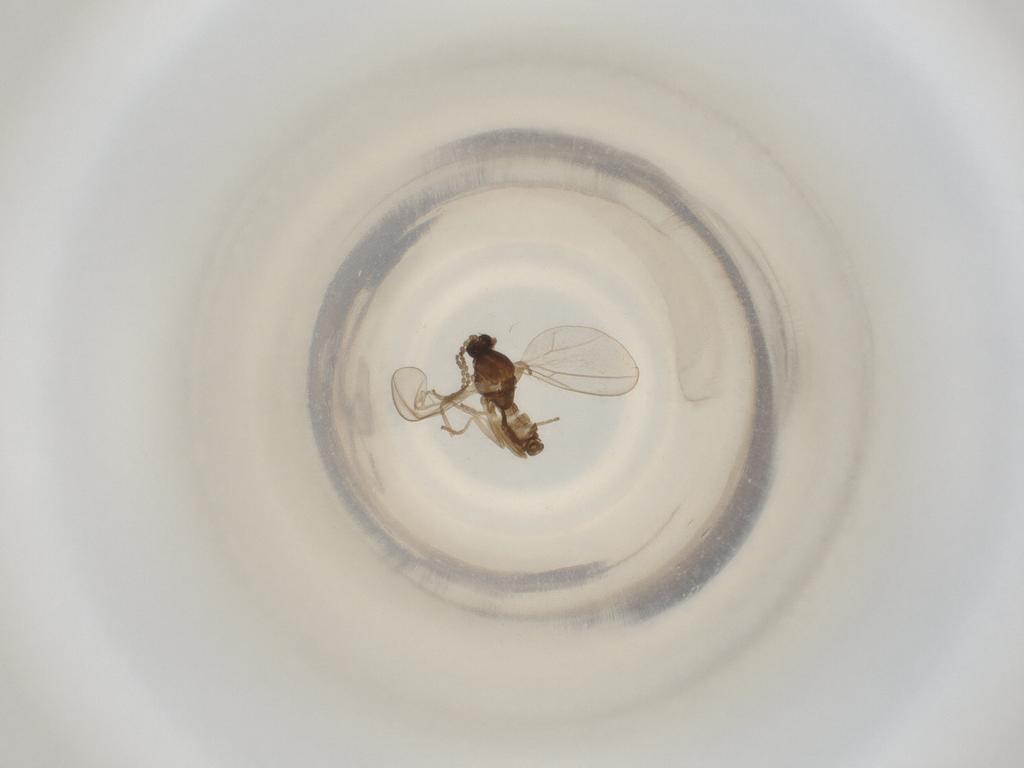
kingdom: Animalia
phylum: Arthropoda
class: Insecta
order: Diptera
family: Cecidomyiidae
